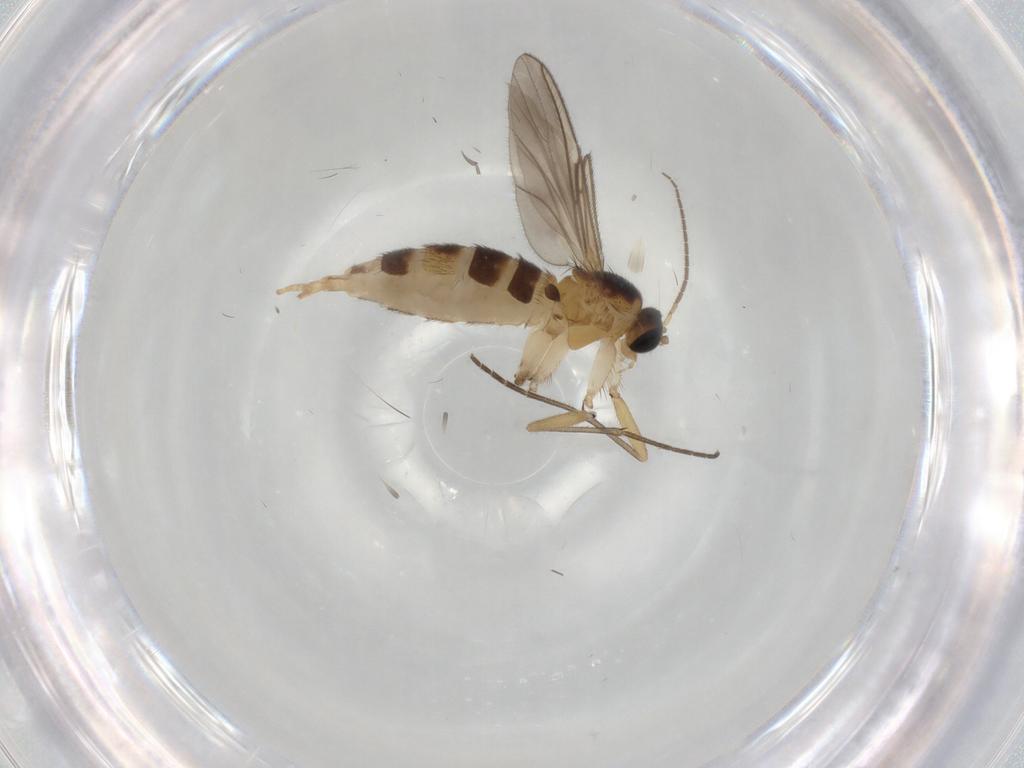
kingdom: Animalia
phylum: Arthropoda
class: Insecta
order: Diptera
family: Sciaridae
